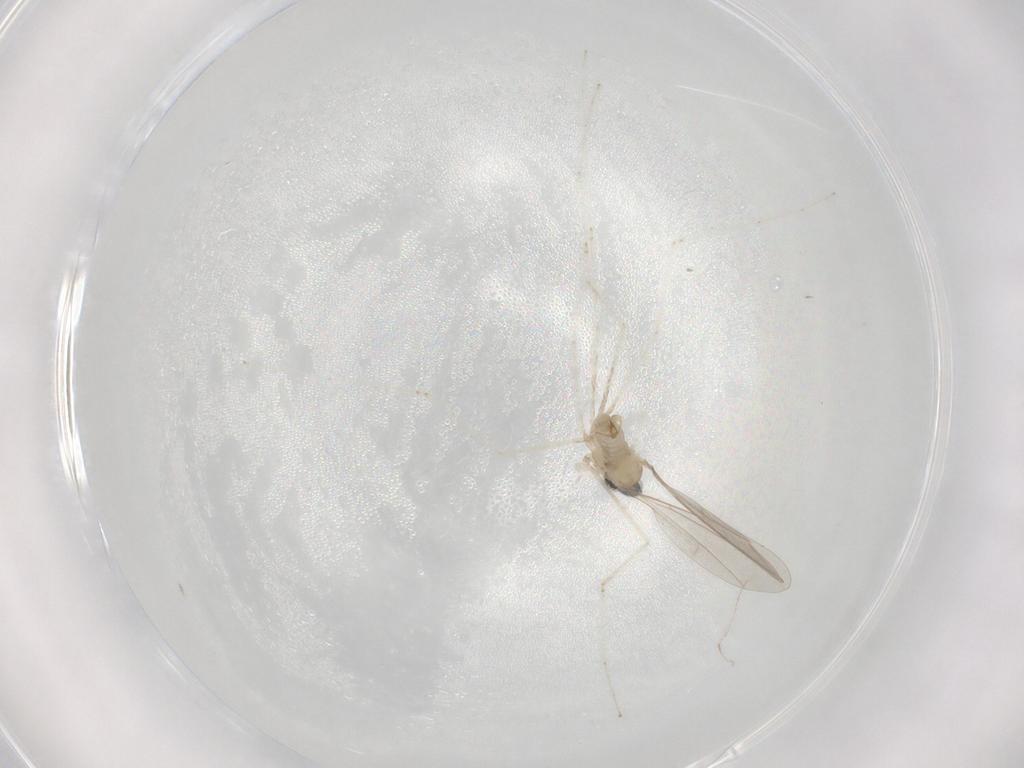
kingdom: Animalia
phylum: Arthropoda
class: Insecta
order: Diptera
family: Cecidomyiidae
